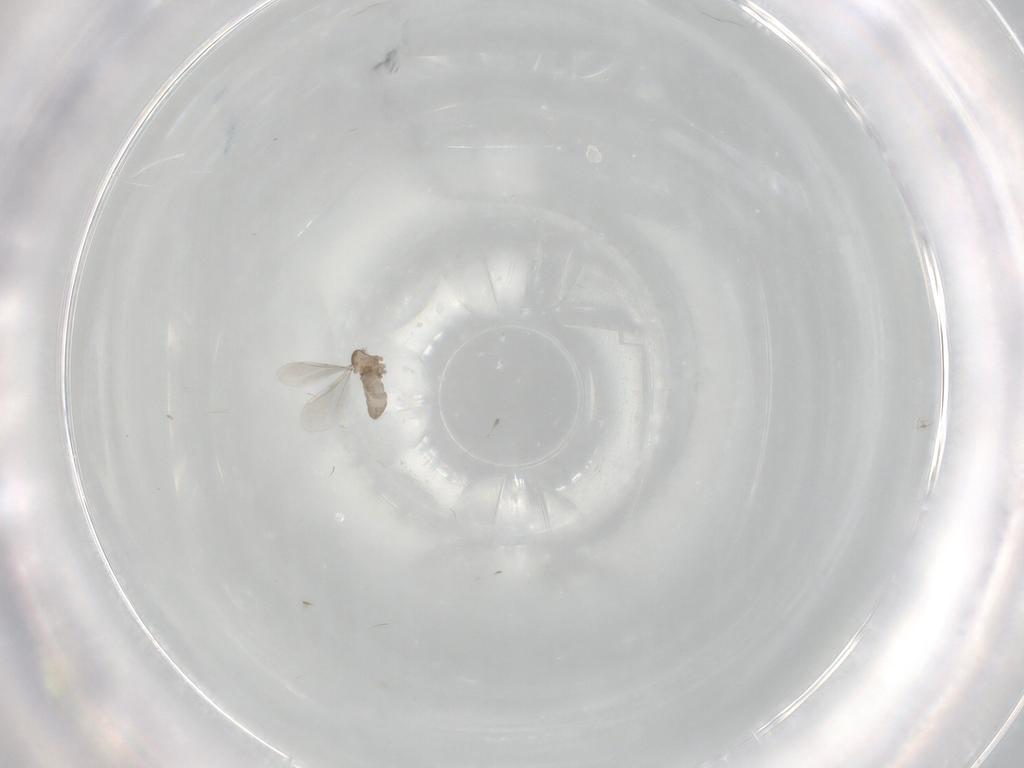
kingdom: Animalia
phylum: Arthropoda
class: Insecta
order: Diptera
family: Cecidomyiidae
